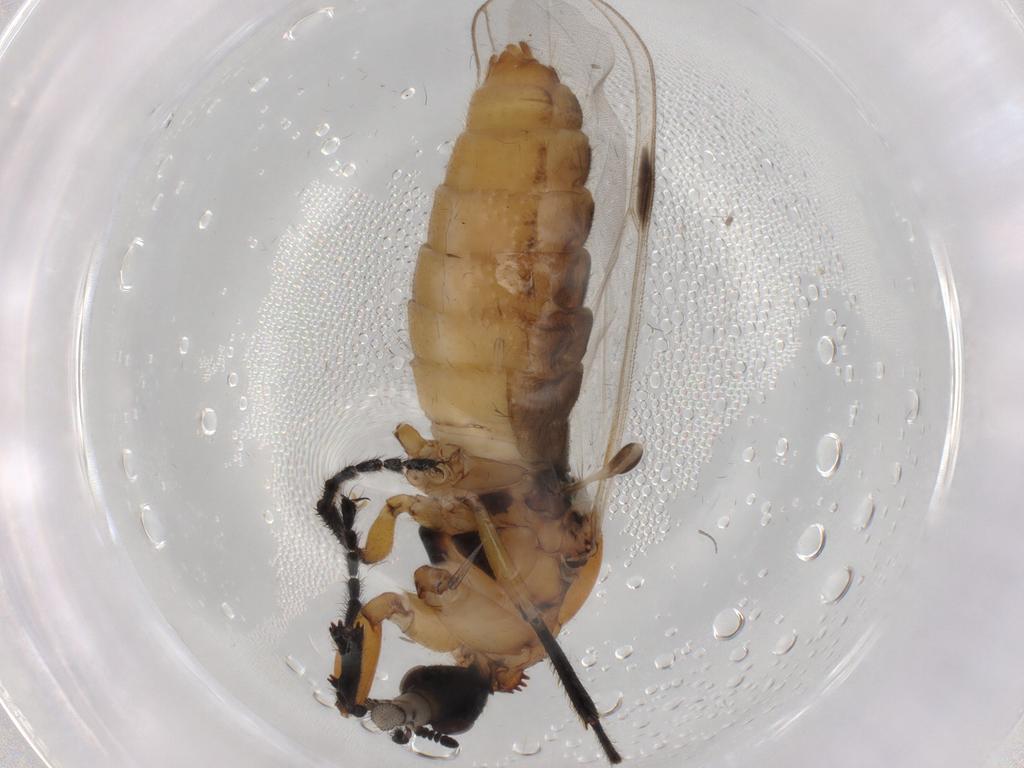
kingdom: Animalia
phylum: Arthropoda
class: Insecta
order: Diptera
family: Bibionidae
